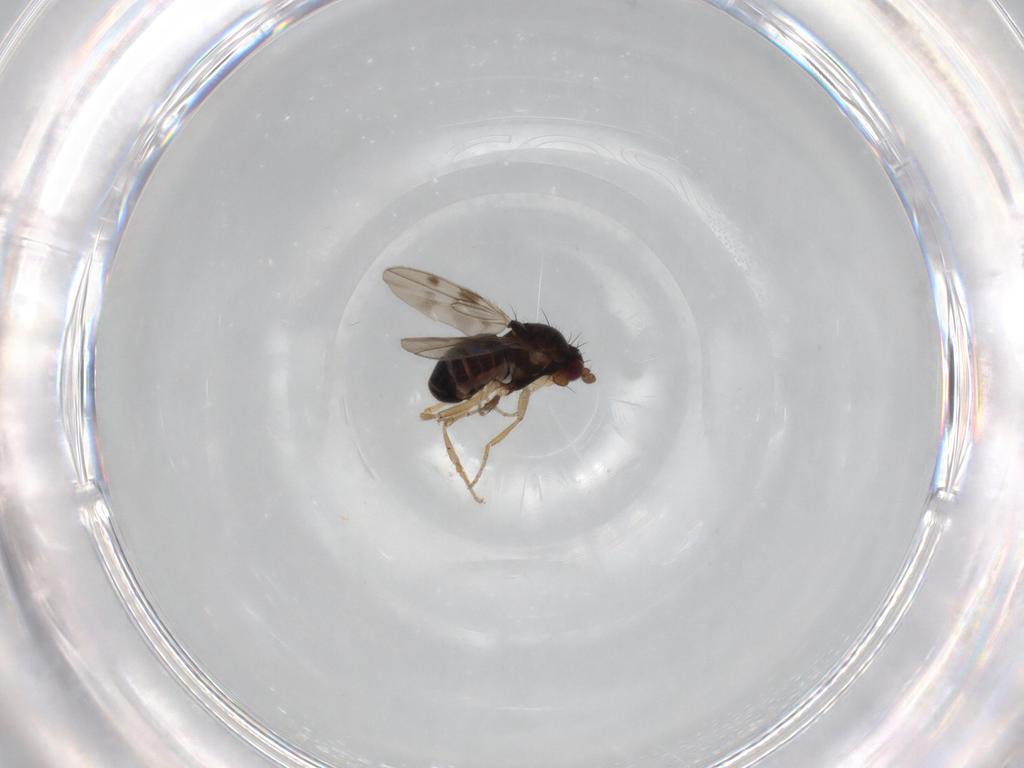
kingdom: Animalia
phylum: Arthropoda
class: Insecta
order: Diptera
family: Sphaeroceridae
